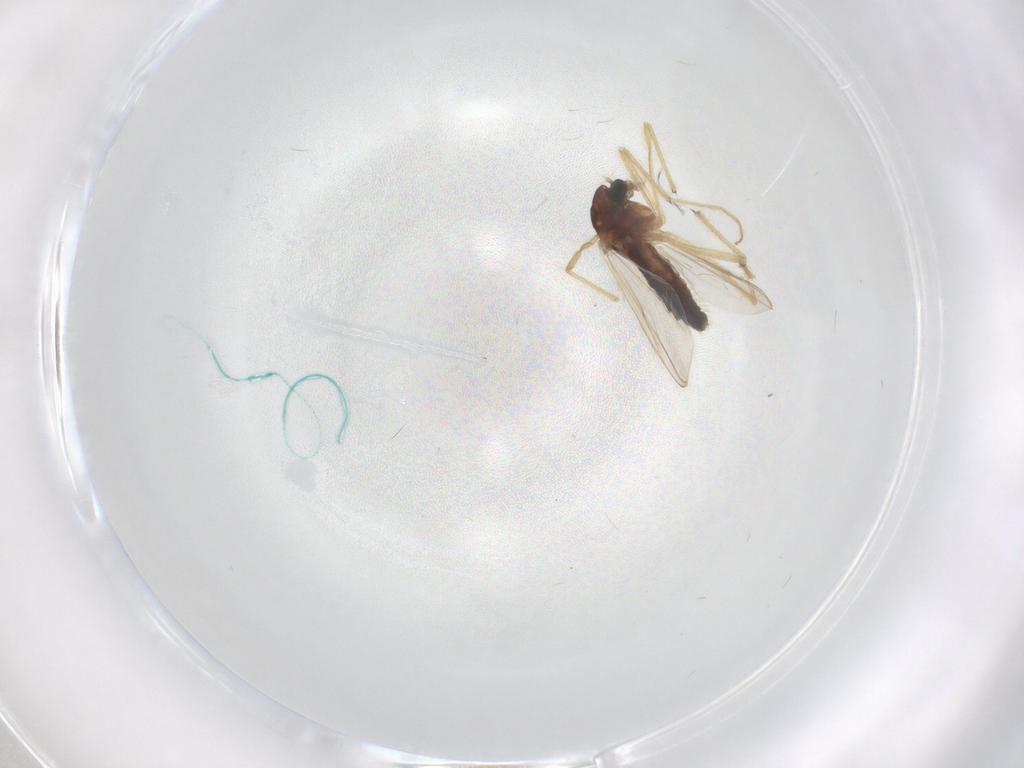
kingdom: Animalia
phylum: Arthropoda
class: Insecta
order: Diptera
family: Chironomidae
